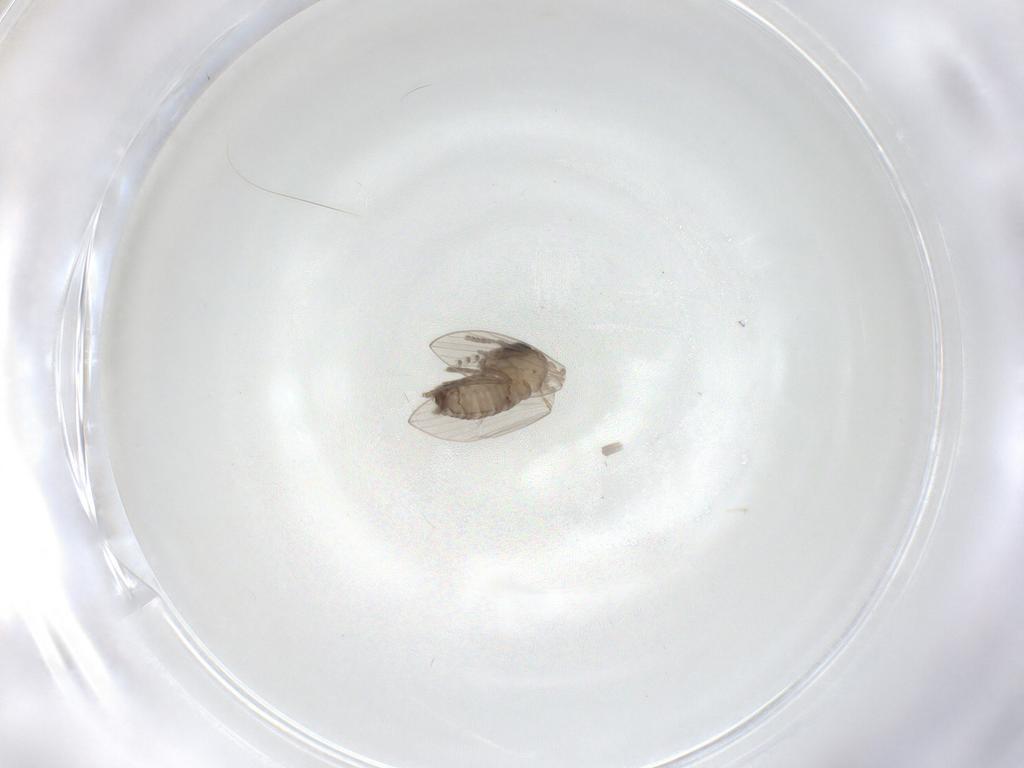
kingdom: Animalia
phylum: Arthropoda
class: Insecta
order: Diptera
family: Psychodidae
